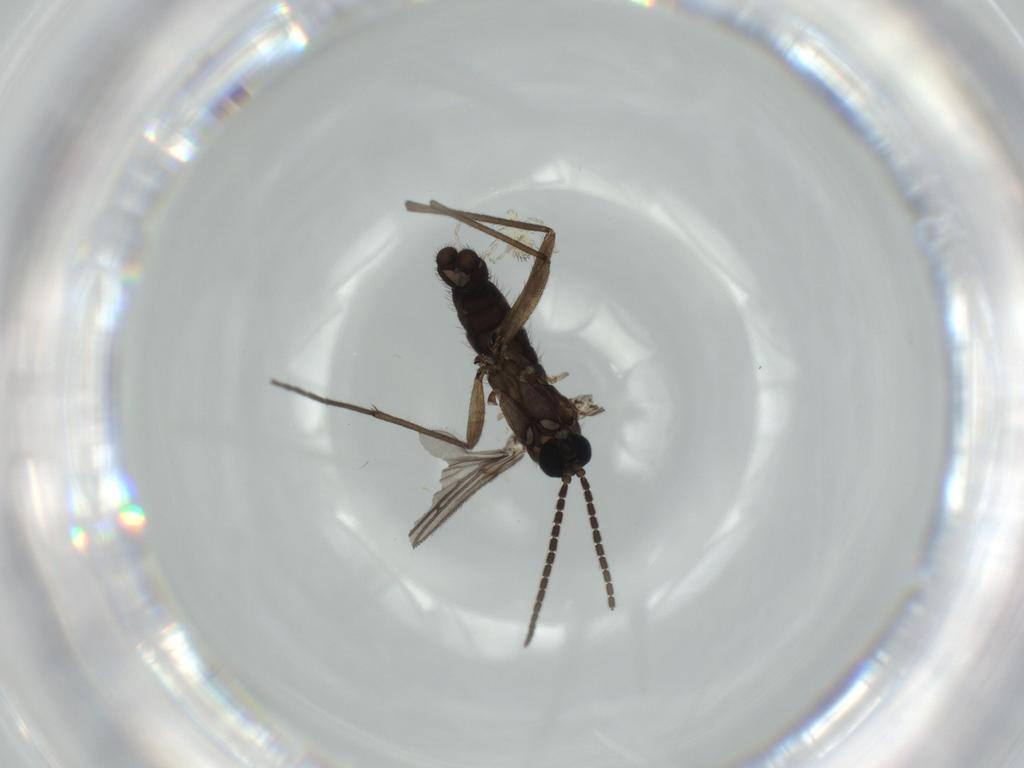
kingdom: Animalia
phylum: Arthropoda
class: Insecta
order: Diptera
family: Sciaridae
